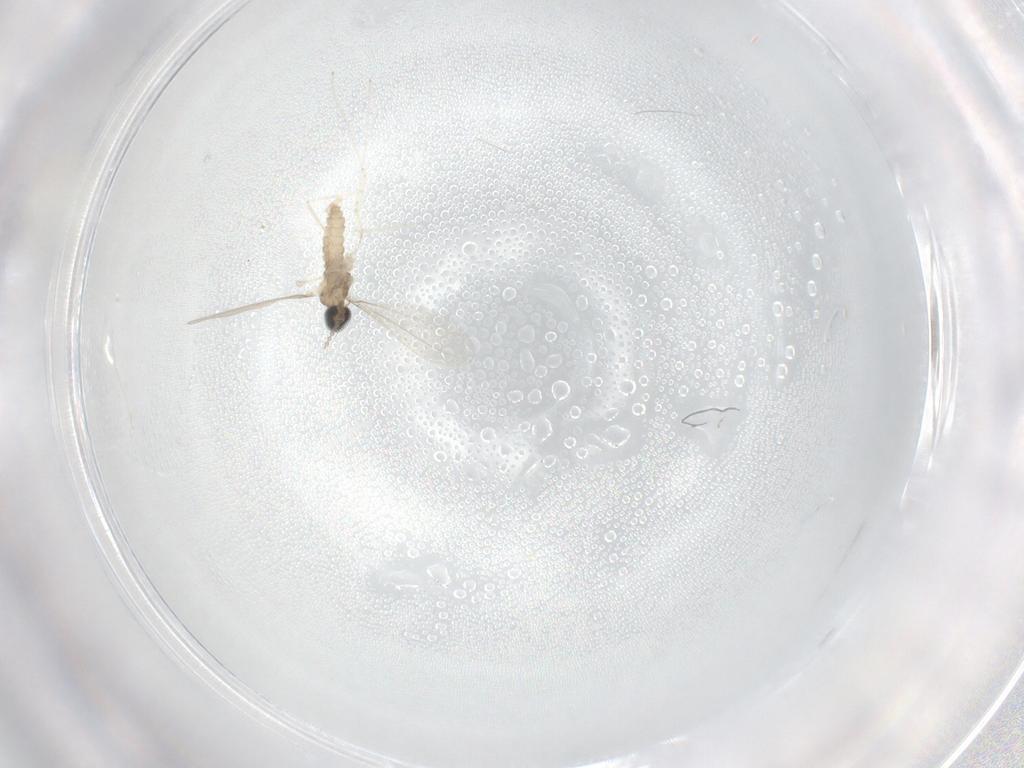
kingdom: Animalia
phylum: Arthropoda
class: Insecta
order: Diptera
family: Cecidomyiidae
